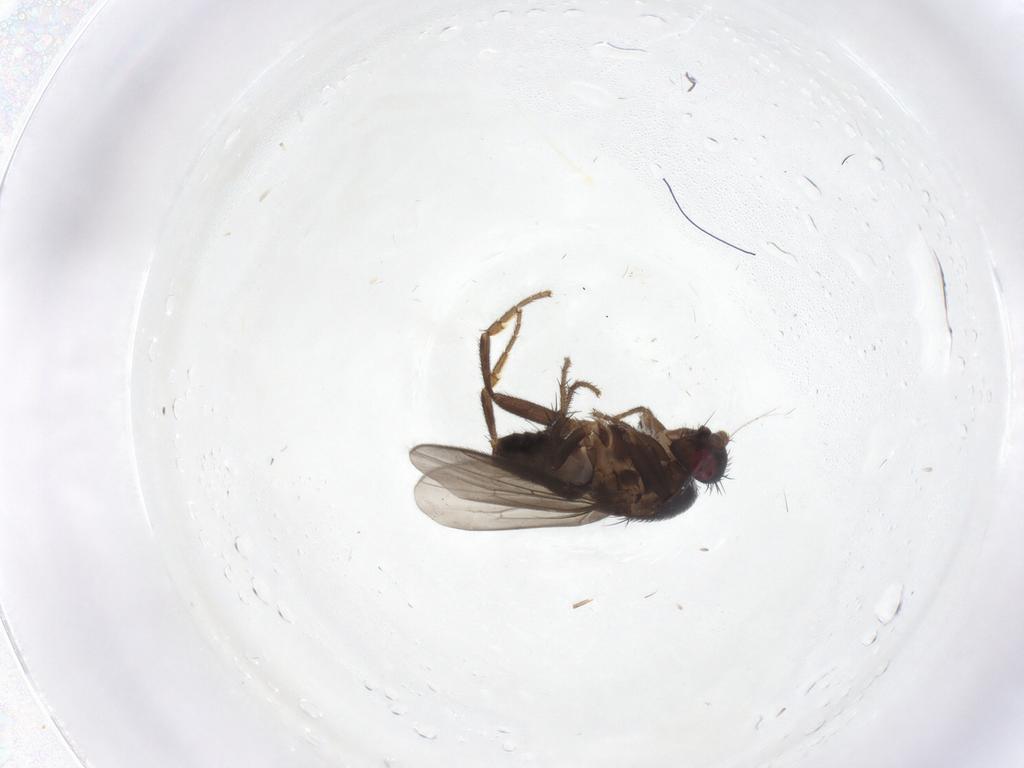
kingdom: Animalia
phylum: Arthropoda
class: Insecta
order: Diptera
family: Sphaeroceridae
